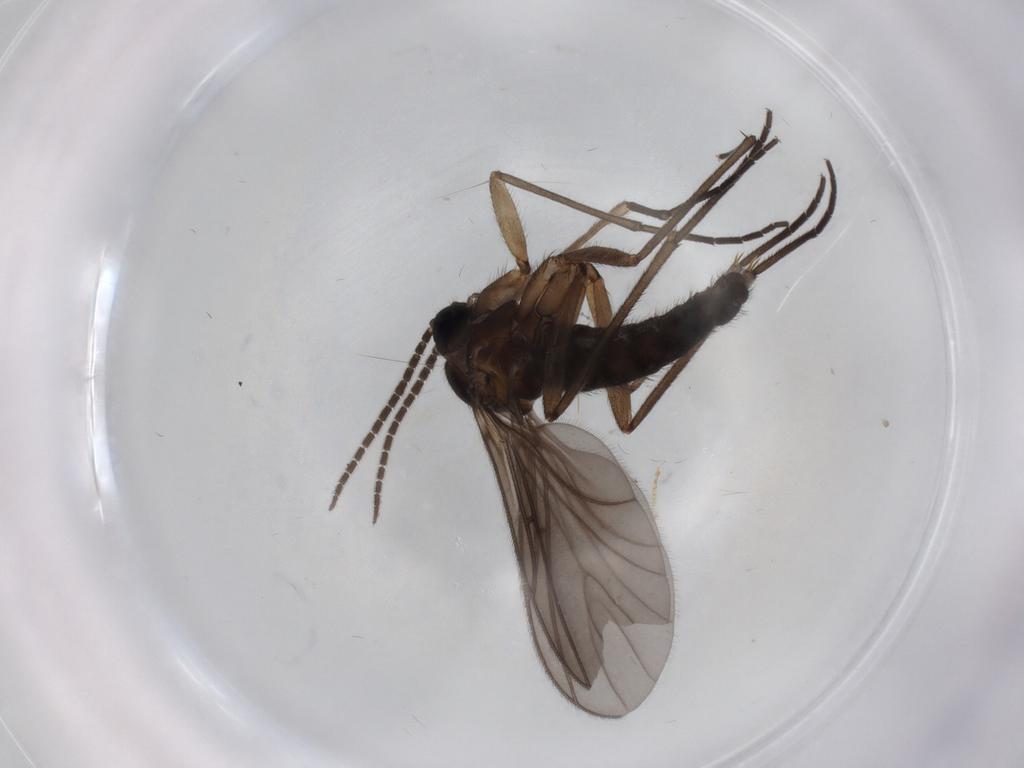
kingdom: Animalia
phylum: Arthropoda
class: Insecta
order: Diptera
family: Sciaridae
